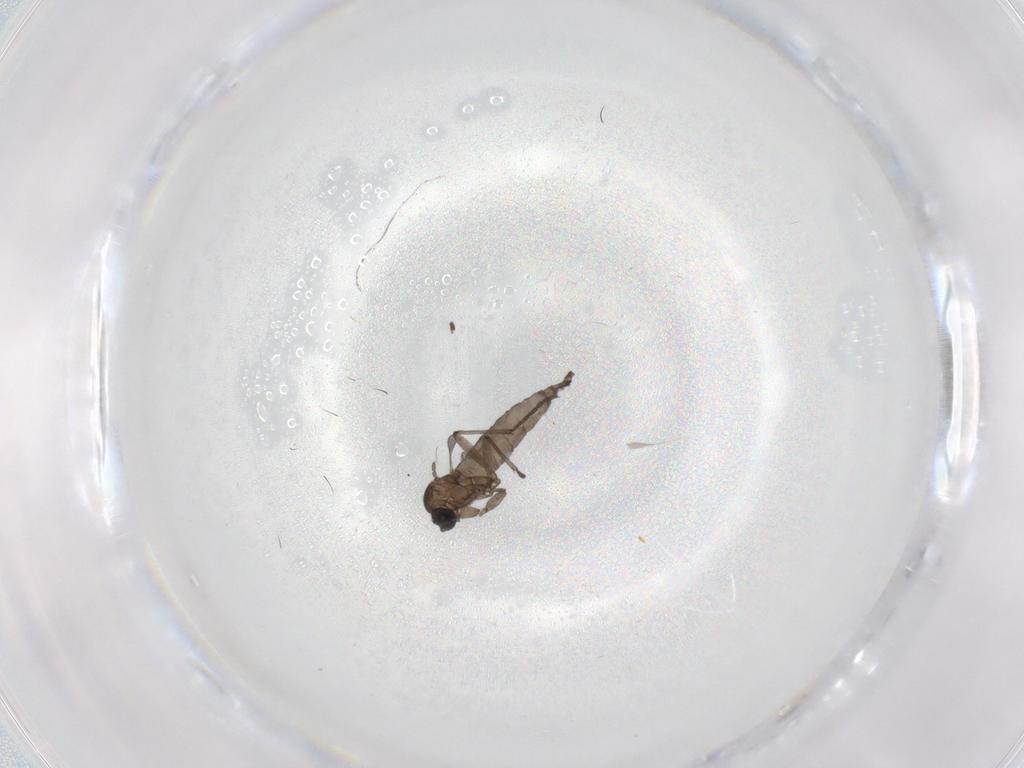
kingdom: Animalia
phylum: Arthropoda
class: Insecta
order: Diptera
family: Sciaridae
